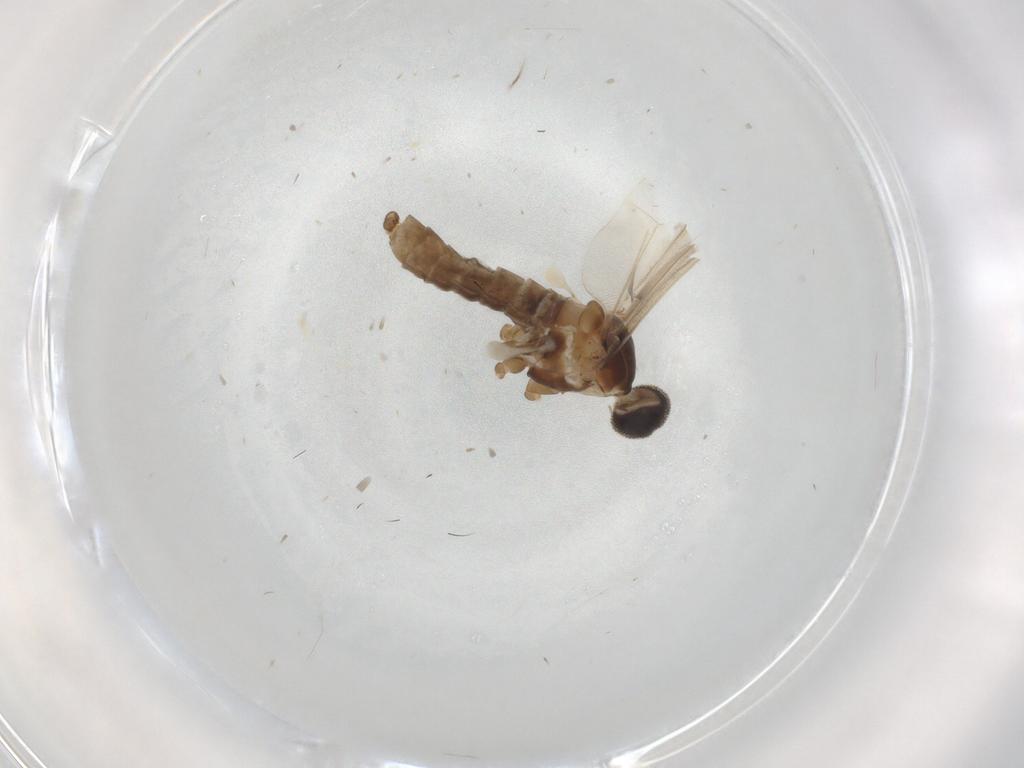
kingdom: Animalia
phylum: Arthropoda
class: Insecta
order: Diptera
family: Cecidomyiidae
